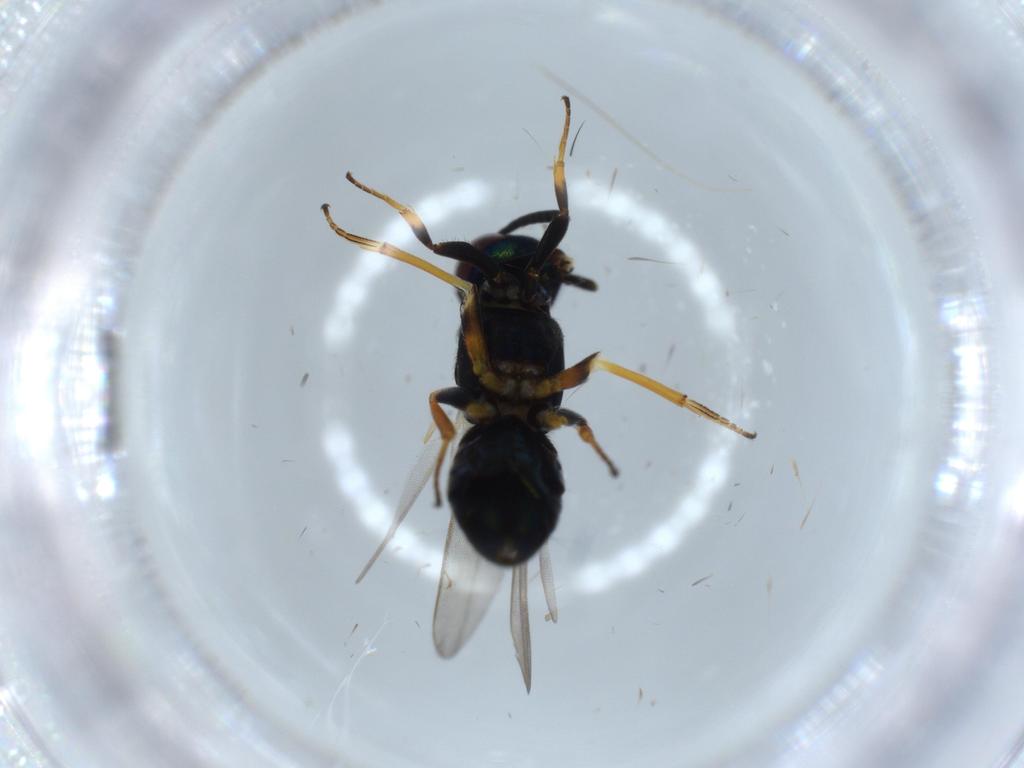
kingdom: Animalia
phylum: Arthropoda
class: Insecta
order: Hymenoptera
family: Eupelmidae
